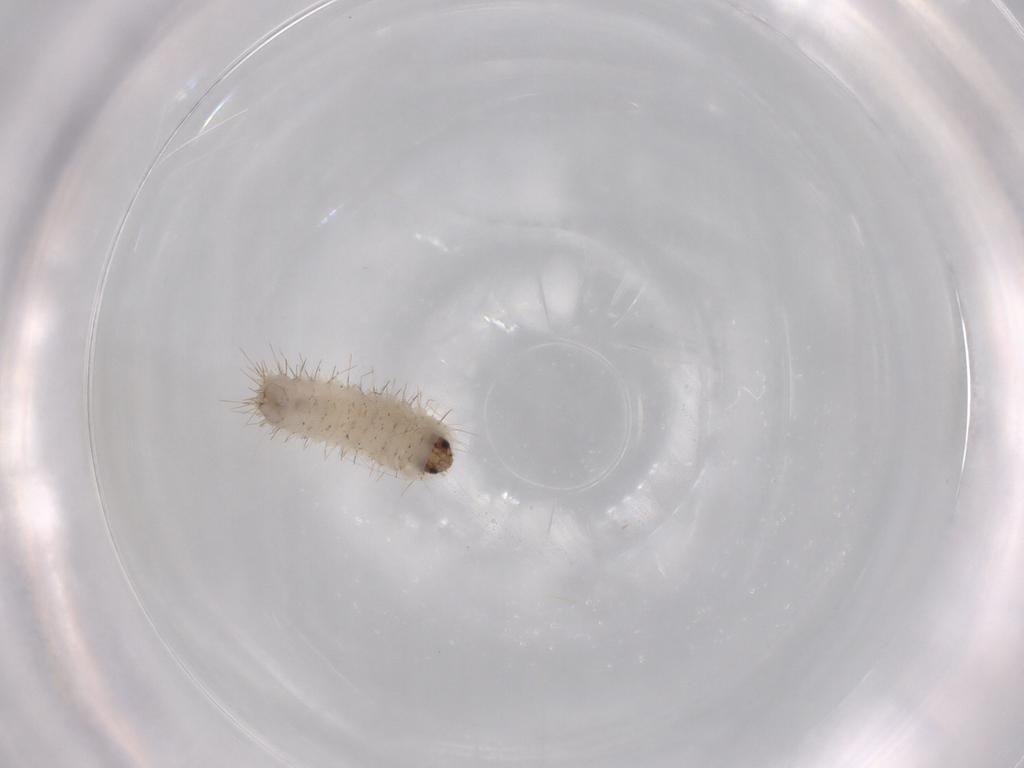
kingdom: Animalia
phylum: Arthropoda
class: Insecta
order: Lepidoptera
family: Zygaenidae
